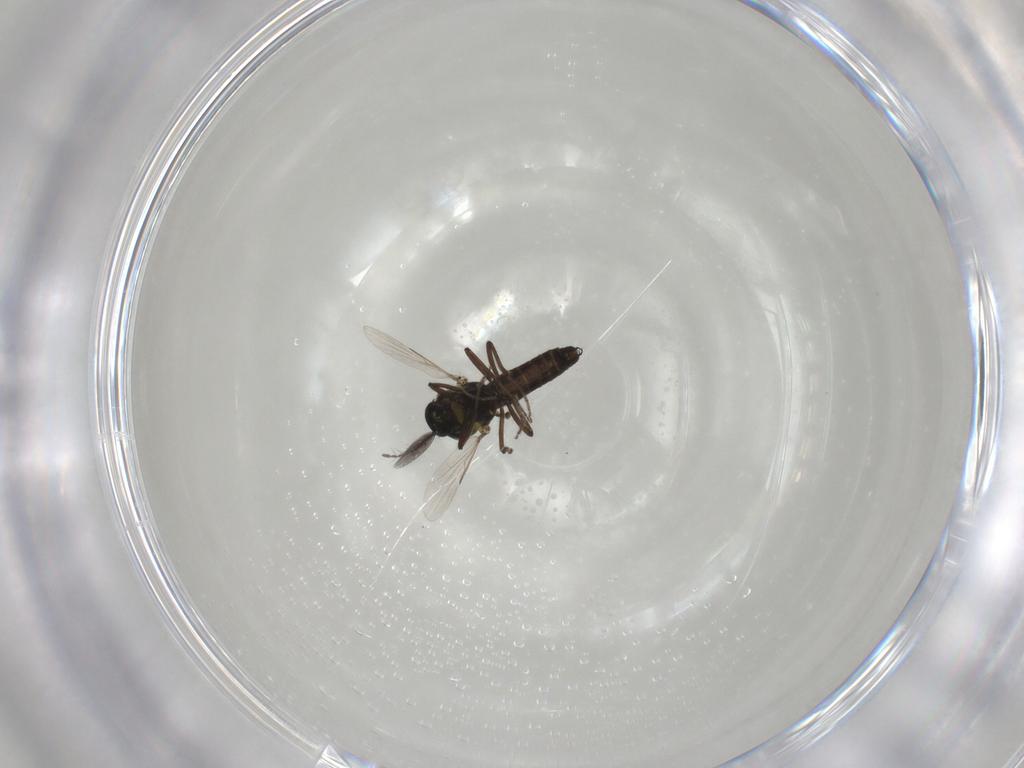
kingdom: Animalia
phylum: Arthropoda
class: Insecta
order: Diptera
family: Ceratopogonidae
